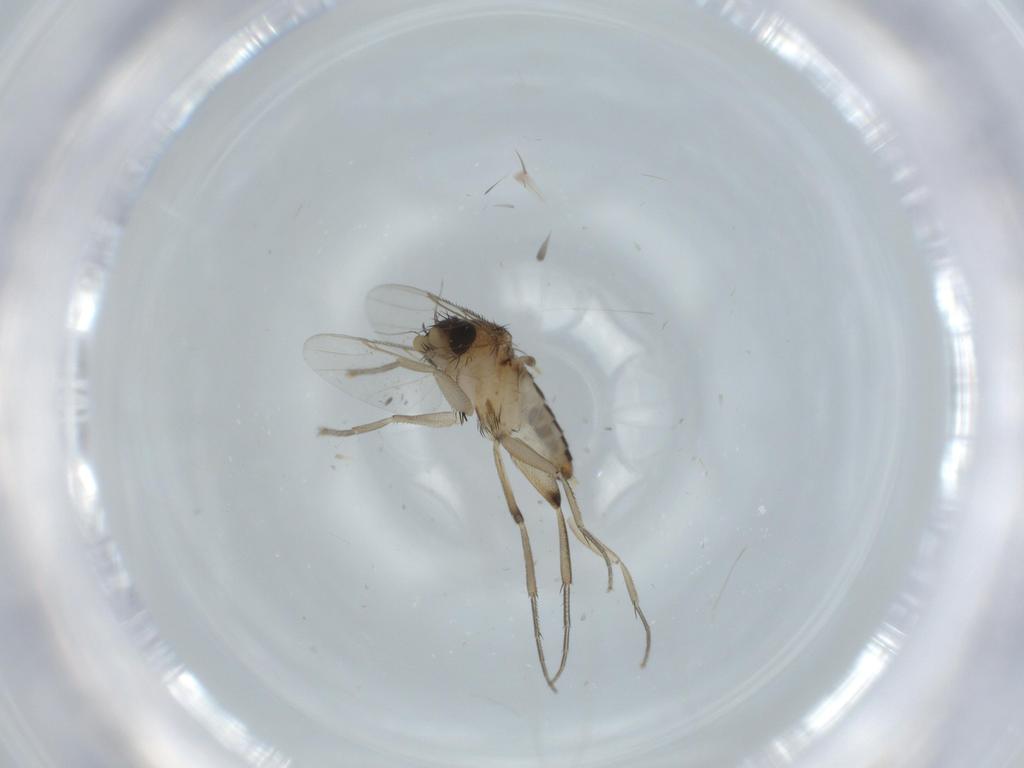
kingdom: Animalia
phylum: Arthropoda
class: Insecta
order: Diptera
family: Phoridae
